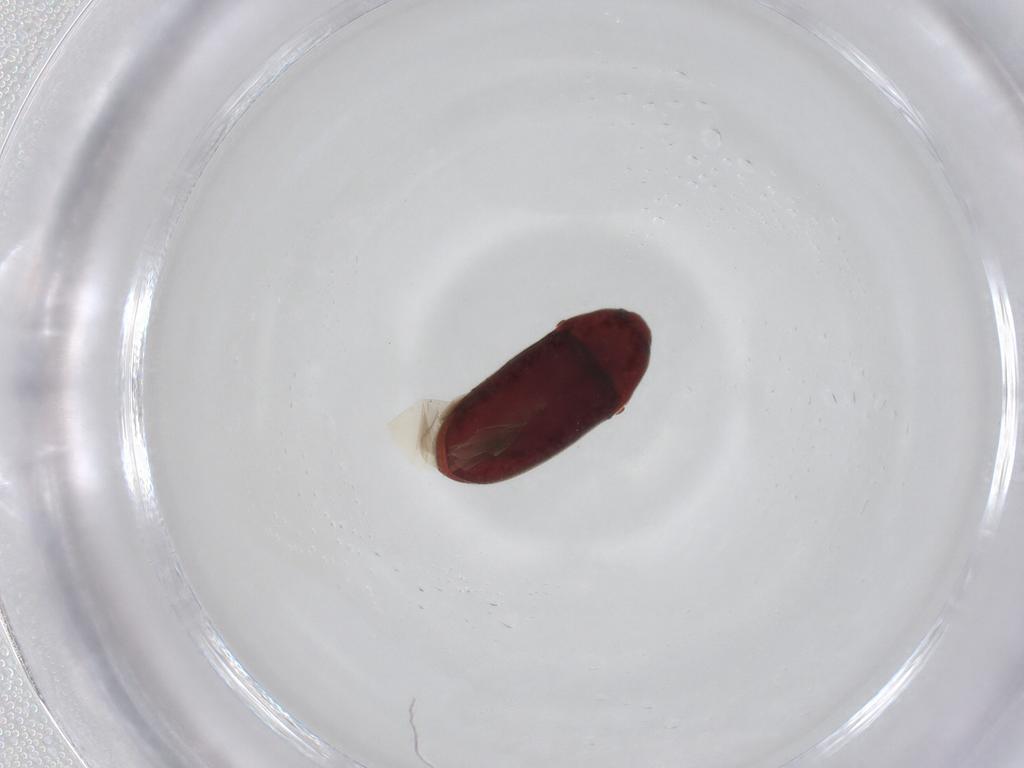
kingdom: Animalia
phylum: Arthropoda
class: Insecta
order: Coleoptera
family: Throscidae
